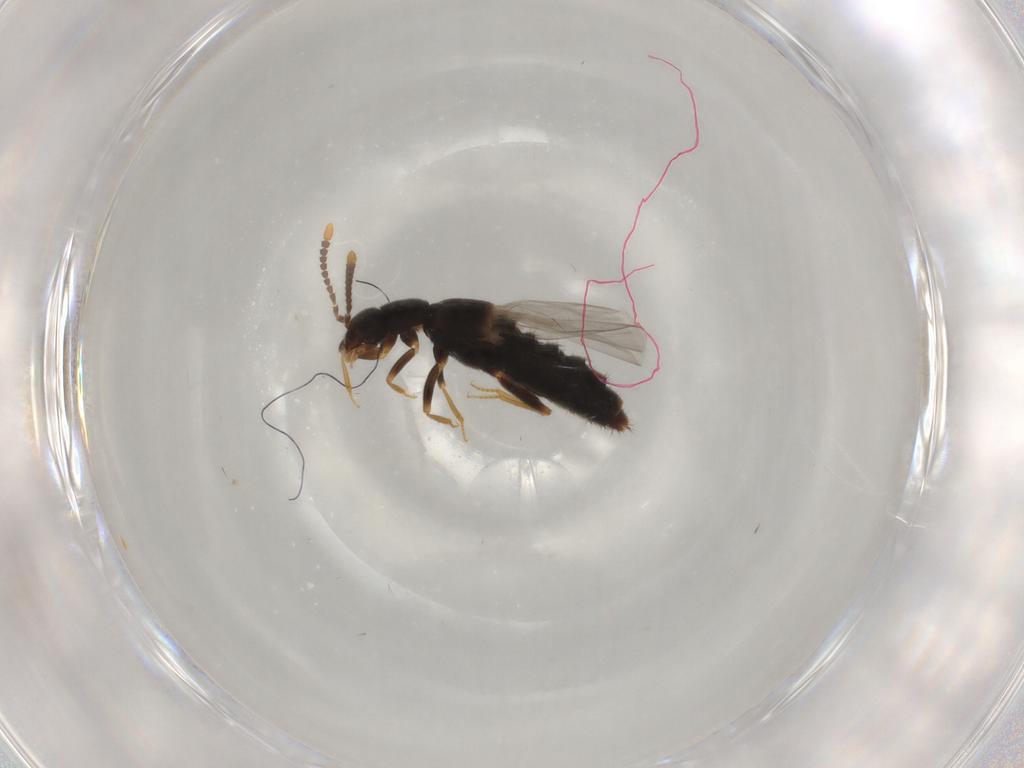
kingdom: Animalia
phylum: Arthropoda
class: Insecta
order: Coleoptera
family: Staphylinidae
